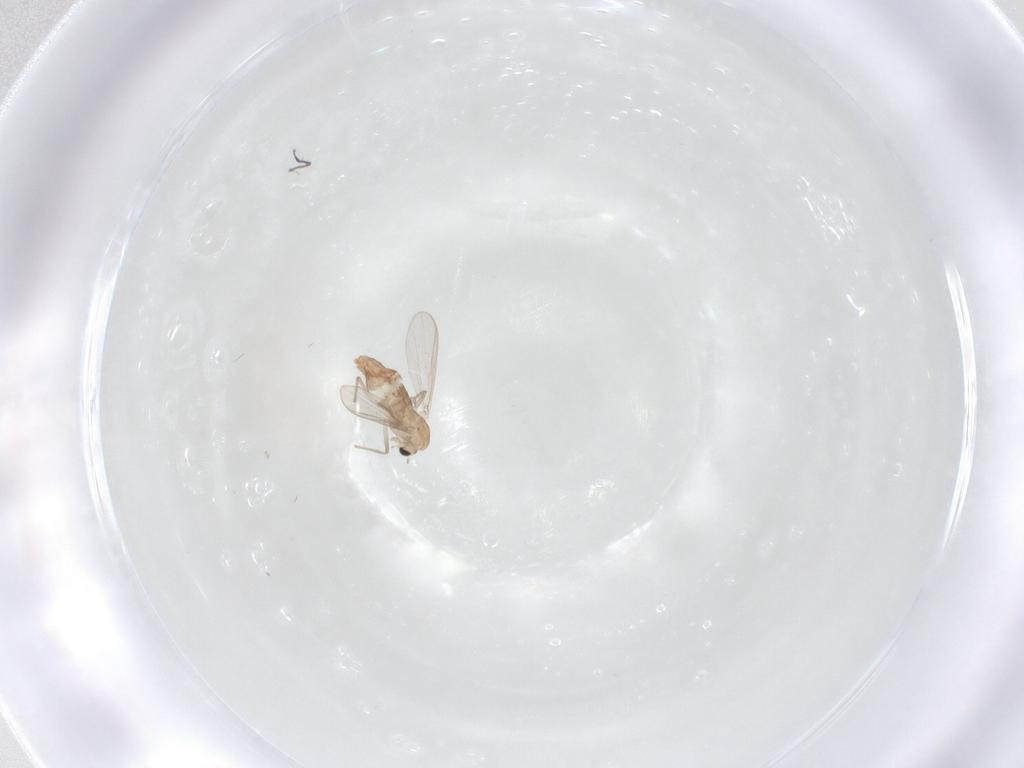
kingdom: Animalia
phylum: Arthropoda
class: Insecta
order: Diptera
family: Chironomidae
